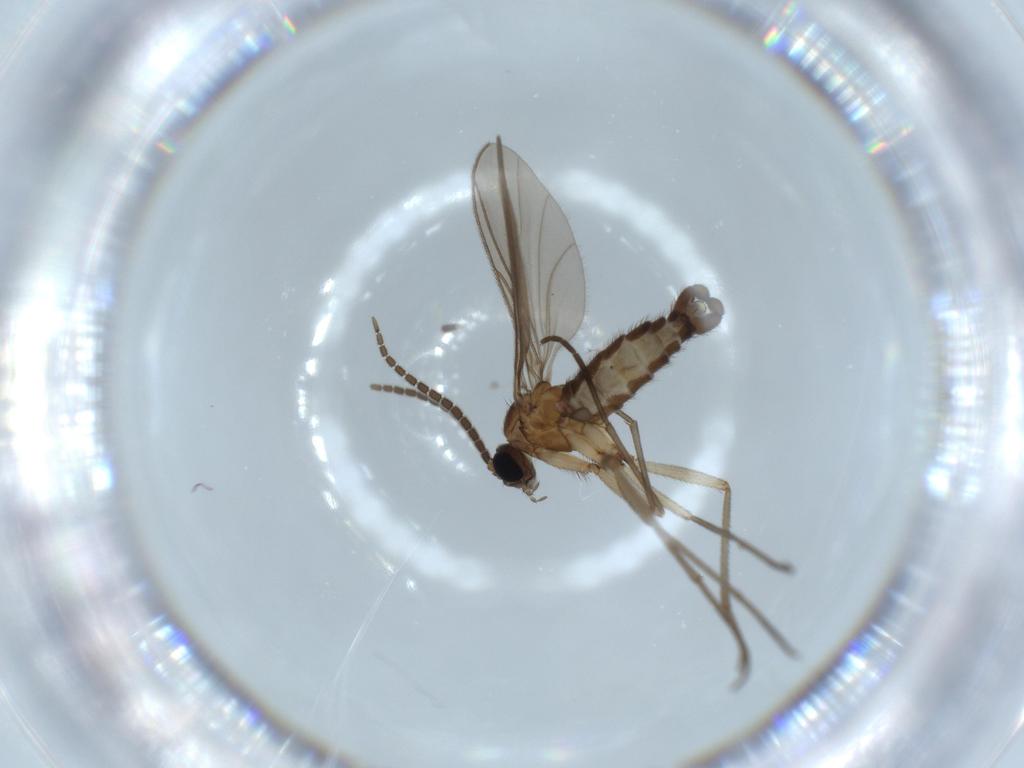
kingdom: Animalia
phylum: Arthropoda
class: Insecta
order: Diptera
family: Sciaridae
